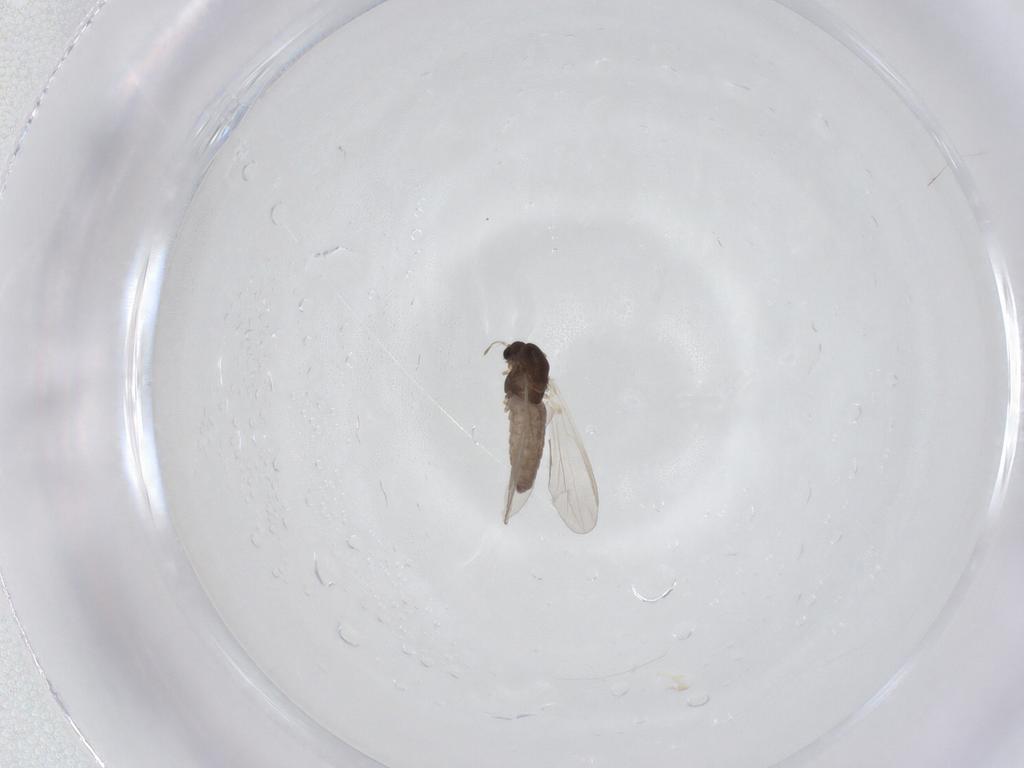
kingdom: Animalia
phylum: Arthropoda
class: Insecta
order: Diptera
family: Chironomidae
